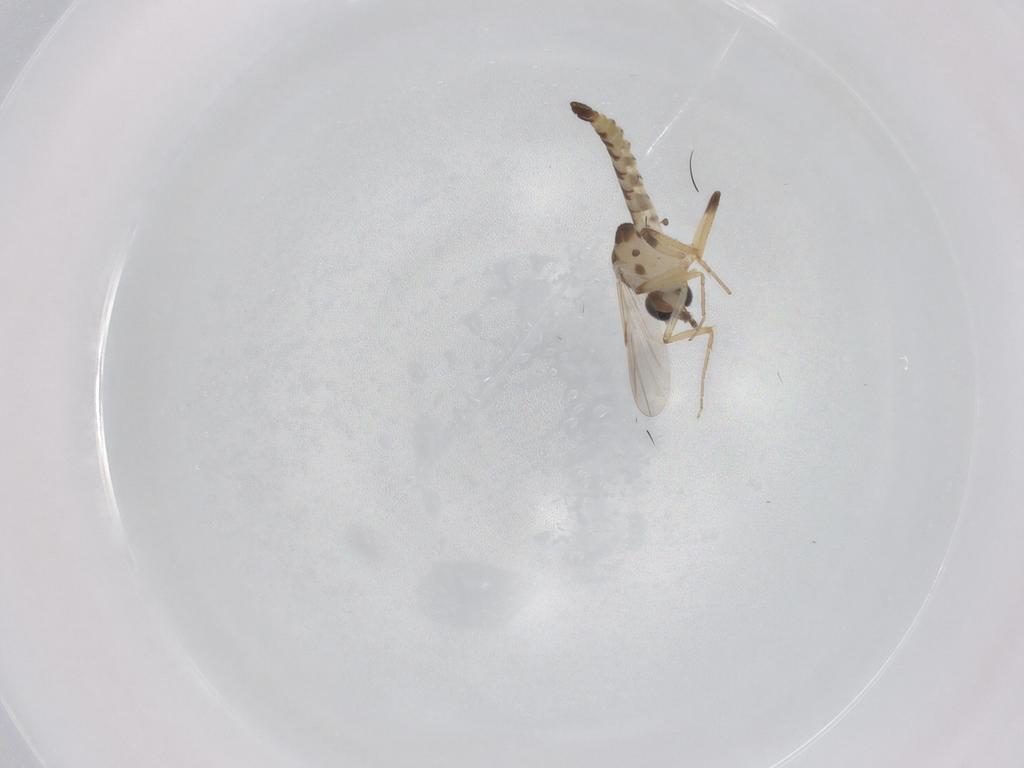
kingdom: Animalia
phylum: Arthropoda
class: Insecta
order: Diptera
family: Ceratopogonidae
